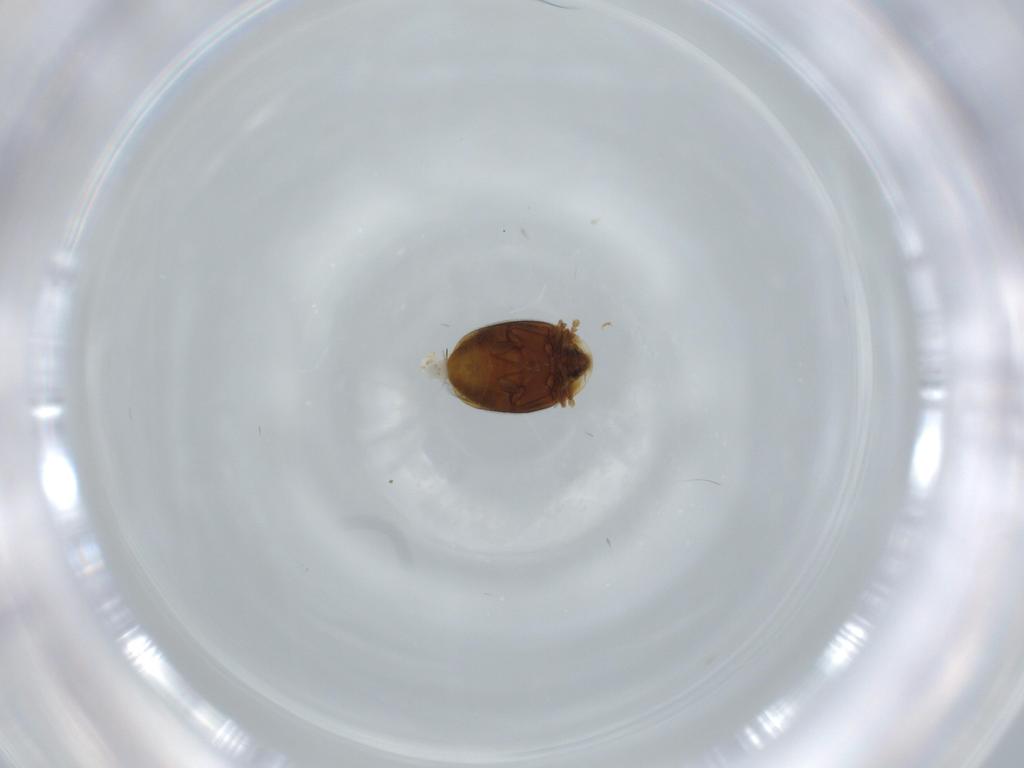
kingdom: Animalia
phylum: Arthropoda
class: Insecta
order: Coleoptera
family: Corylophidae
